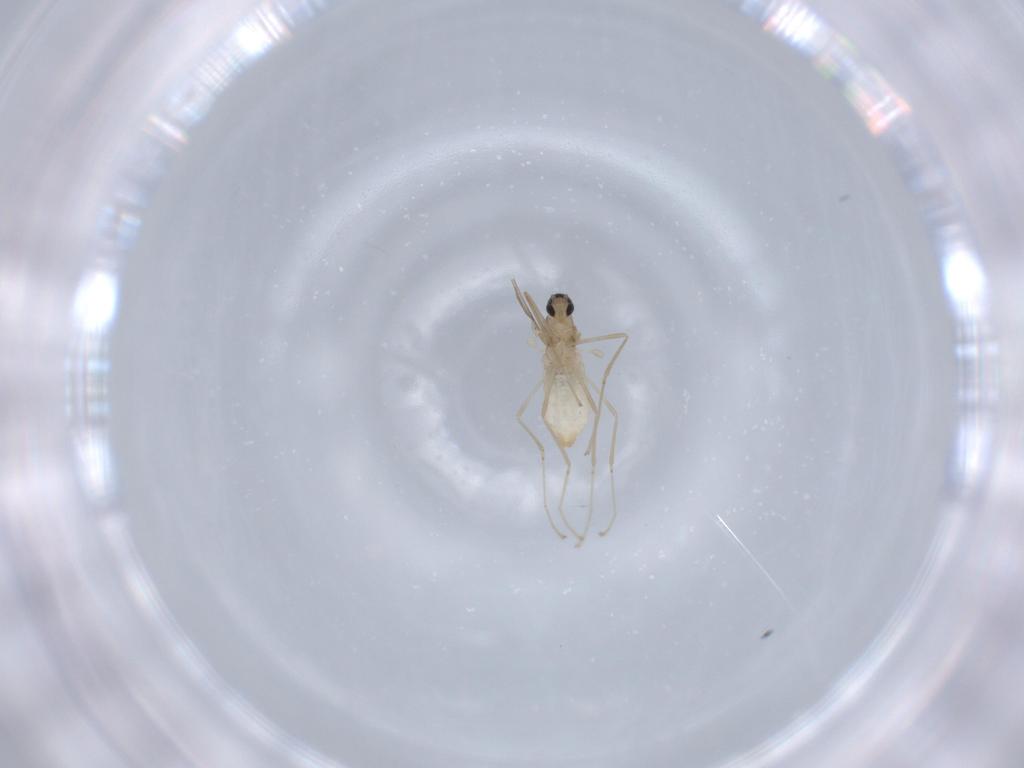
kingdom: Animalia
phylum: Arthropoda
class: Insecta
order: Diptera
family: Cecidomyiidae
